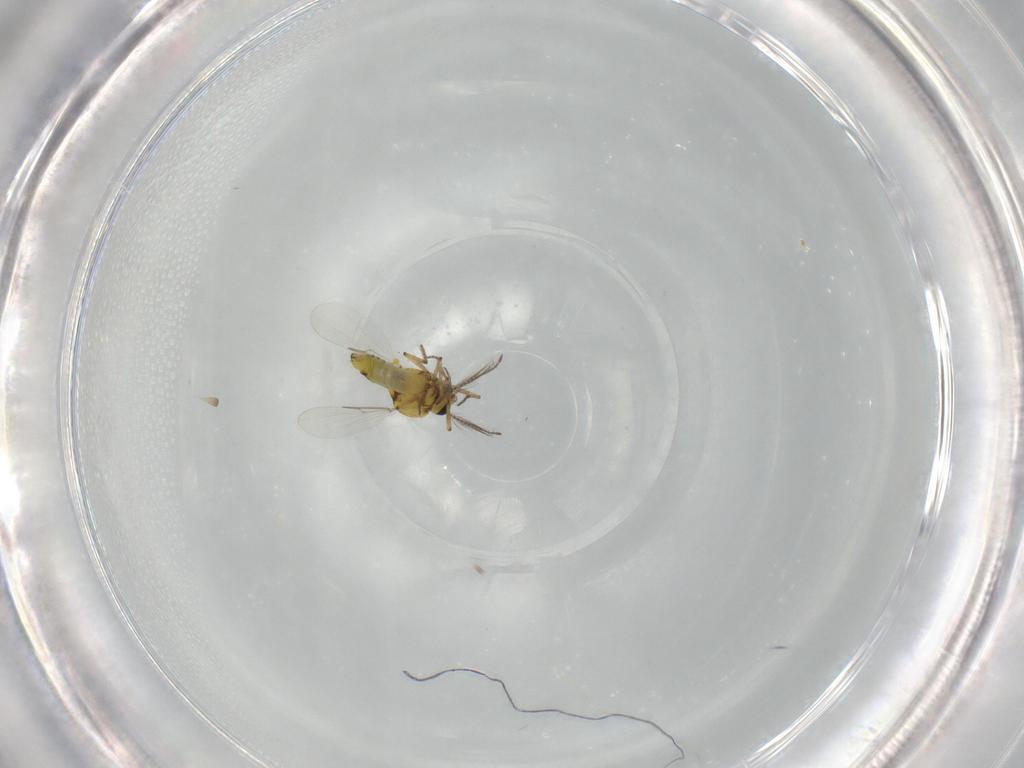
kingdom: Animalia
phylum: Arthropoda
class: Insecta
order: Diptera
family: Ceratopogonidae
